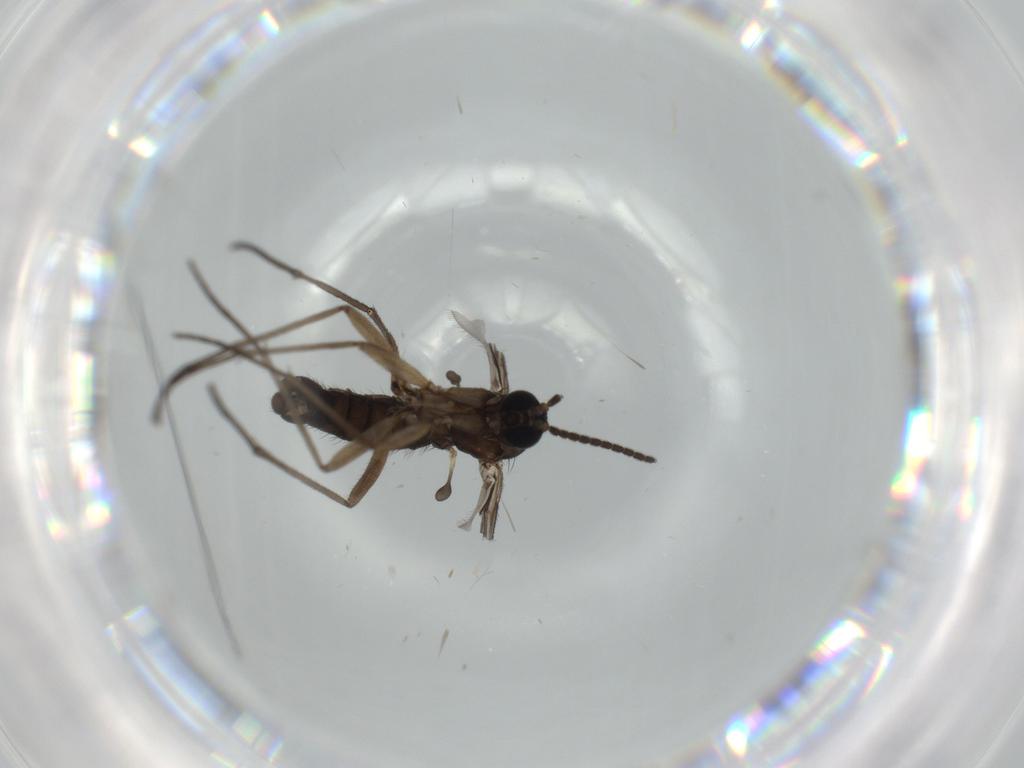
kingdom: Animalia
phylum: Arthropoda
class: Insecta
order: Diptera
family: Sciaridae
